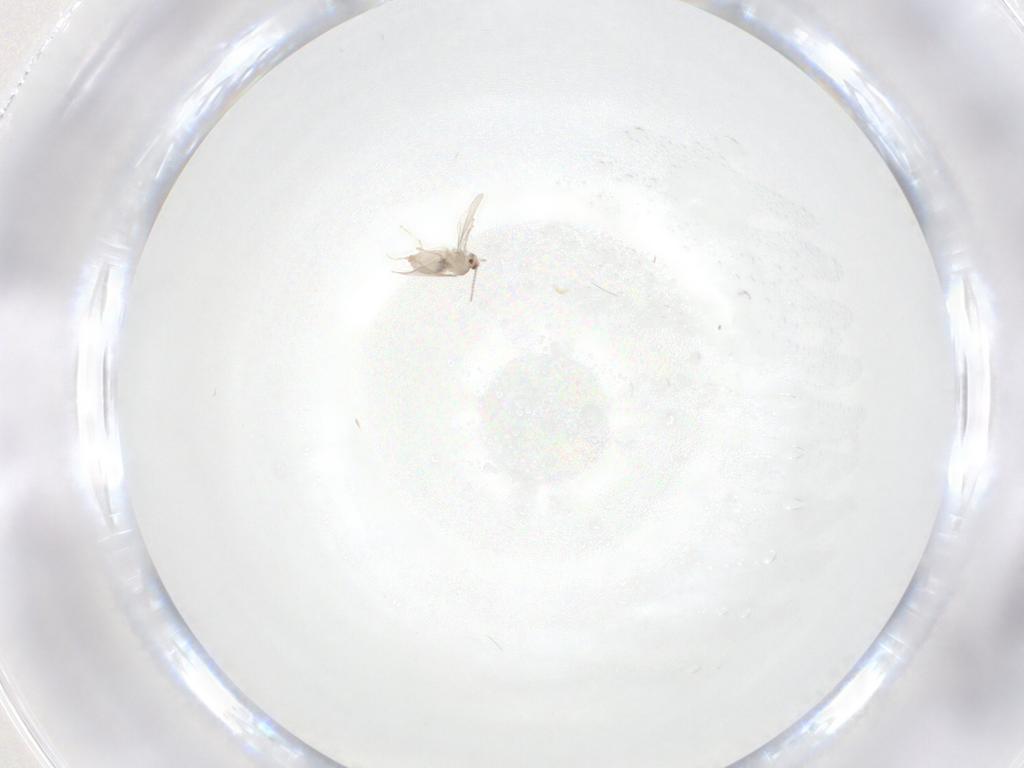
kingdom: Animalia
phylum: Arthropoda
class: Insecta
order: Diptera
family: Cecidomyiidae
